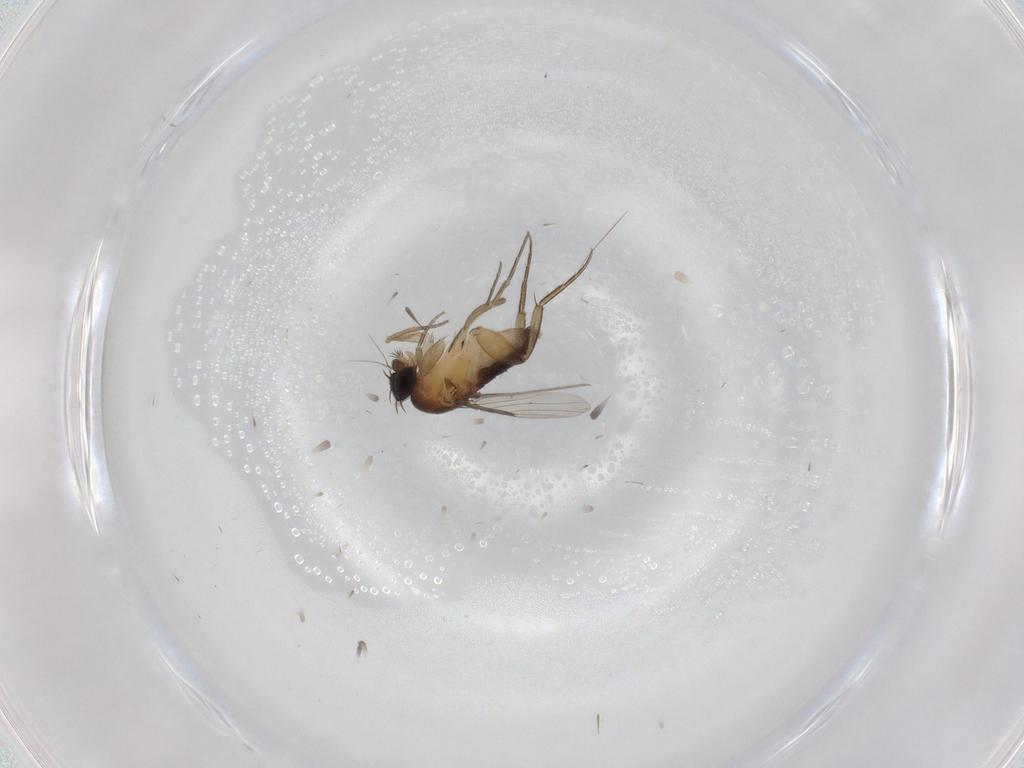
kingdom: Animalia
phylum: Arthropoda
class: Insecta
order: Diptera
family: Phoridae
